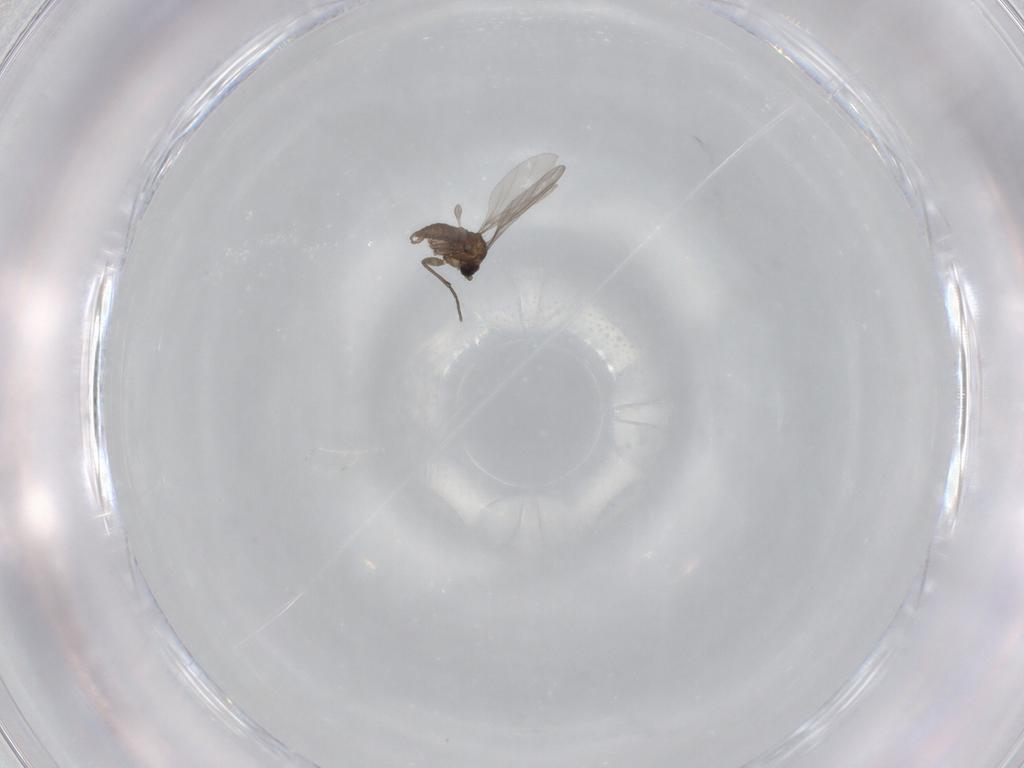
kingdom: Animalia
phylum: Arthropoda
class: Insecta
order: Diptera
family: Sciaridae
